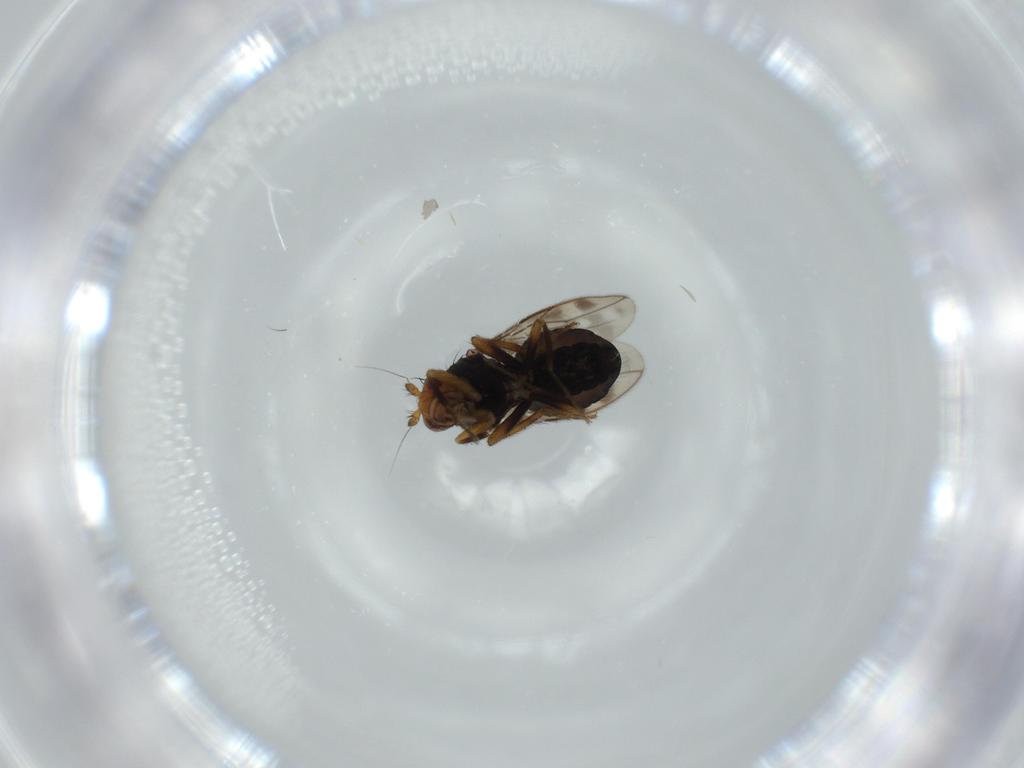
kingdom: Animalia
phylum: Arthropoda
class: Insecta
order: Diptera
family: Sphaeroceridae
